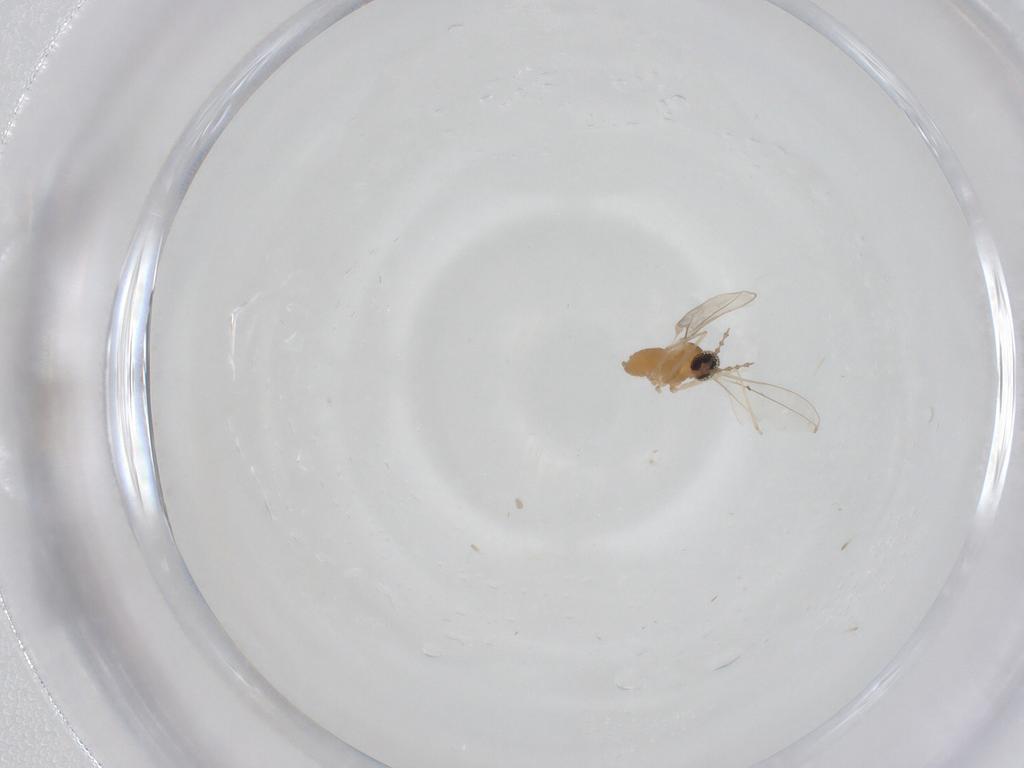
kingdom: Animalia
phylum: Arthropoda
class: Insecta
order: Diptera
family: Cecidomyiidae
